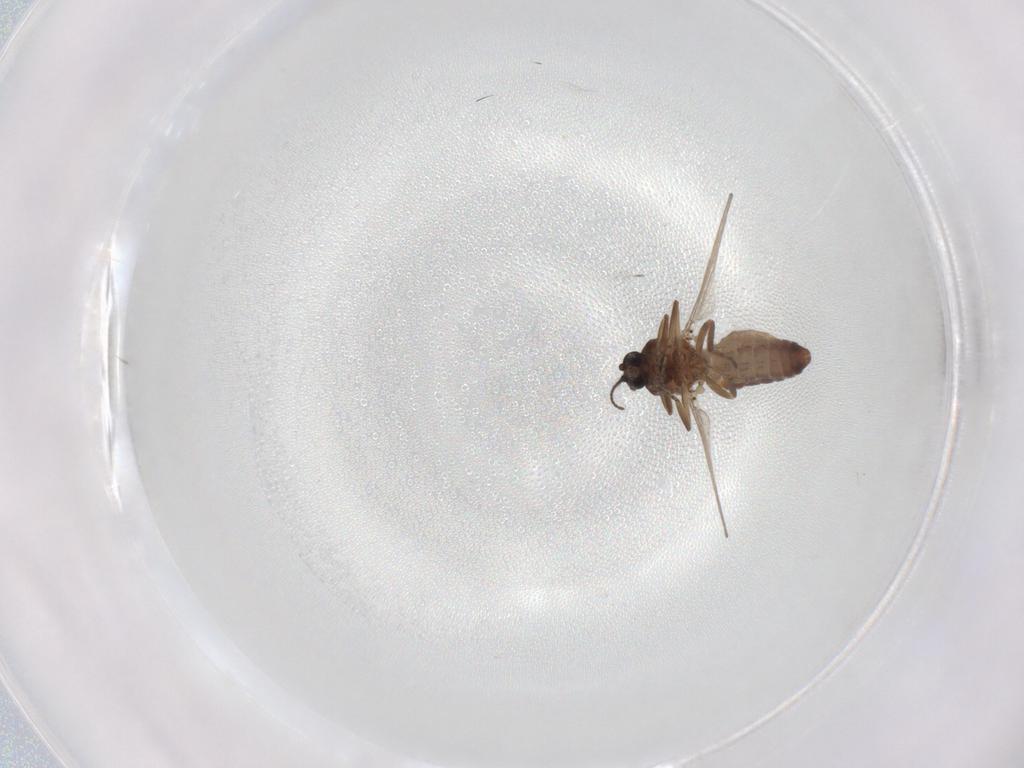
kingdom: Animalia
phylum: Arthropoda
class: Insecta
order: Diptera
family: Ceratopogonidae
